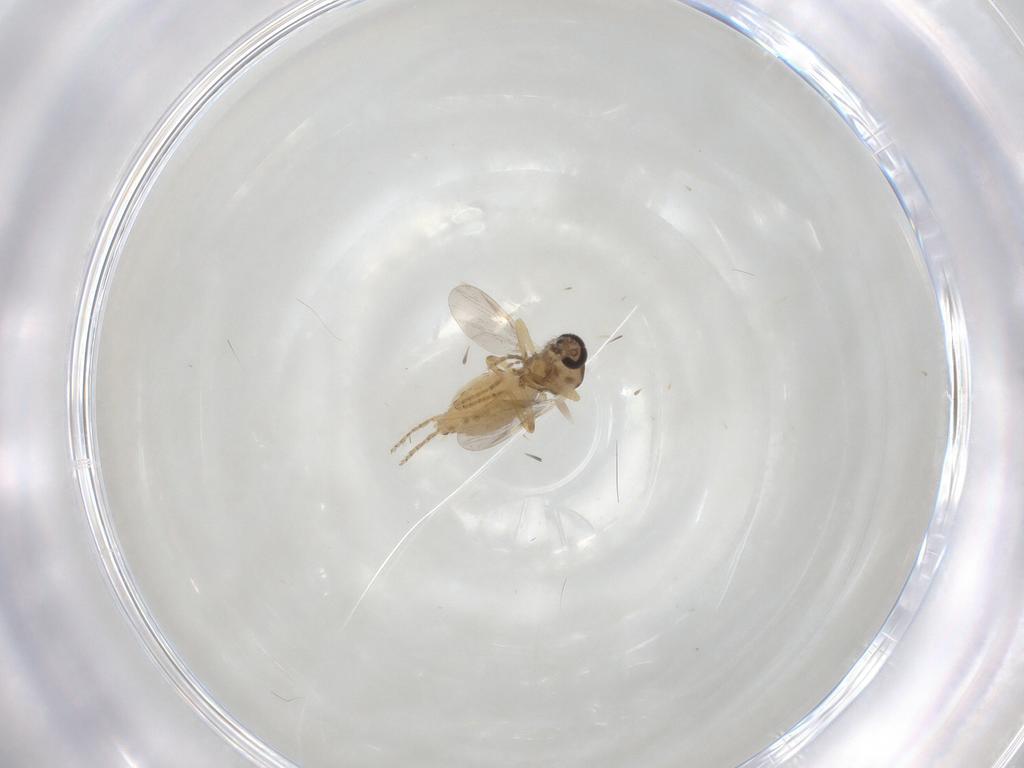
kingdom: Animalia
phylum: Arthropoda
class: Insecta
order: Diptera
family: Ceratopogonidae
